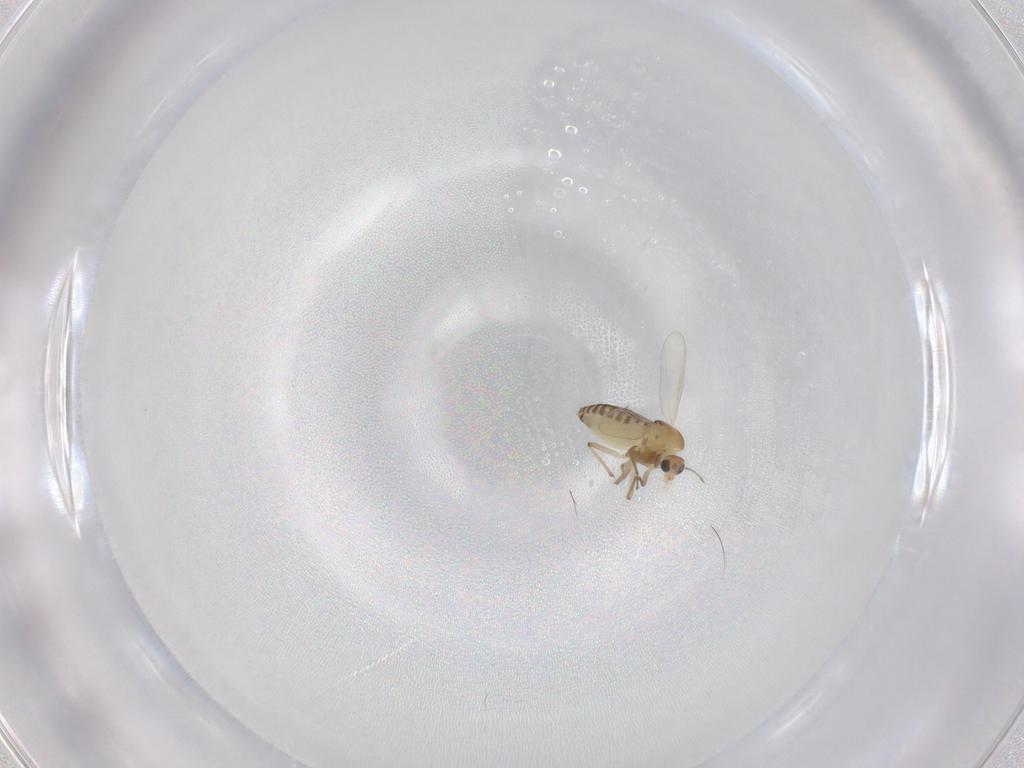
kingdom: Animalia
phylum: Arthropoda
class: Insecta
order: Diptera
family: Chironomidae
